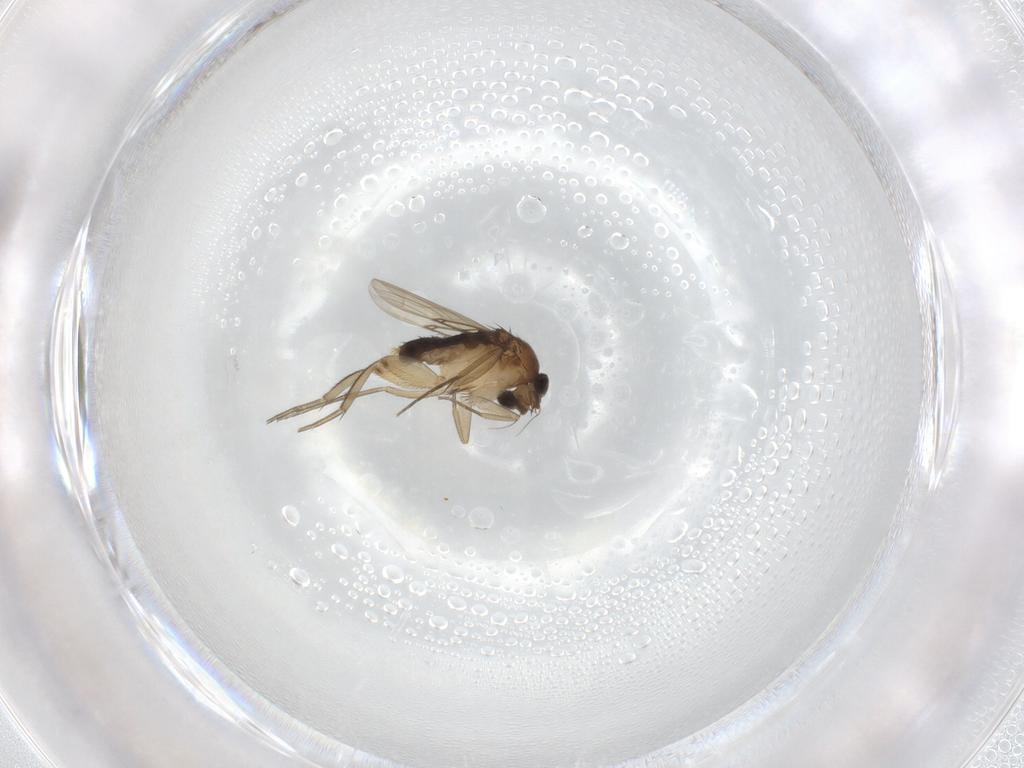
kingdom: Animalia
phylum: Arthropoda
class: Insecta
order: Diptera
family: Phoridae
